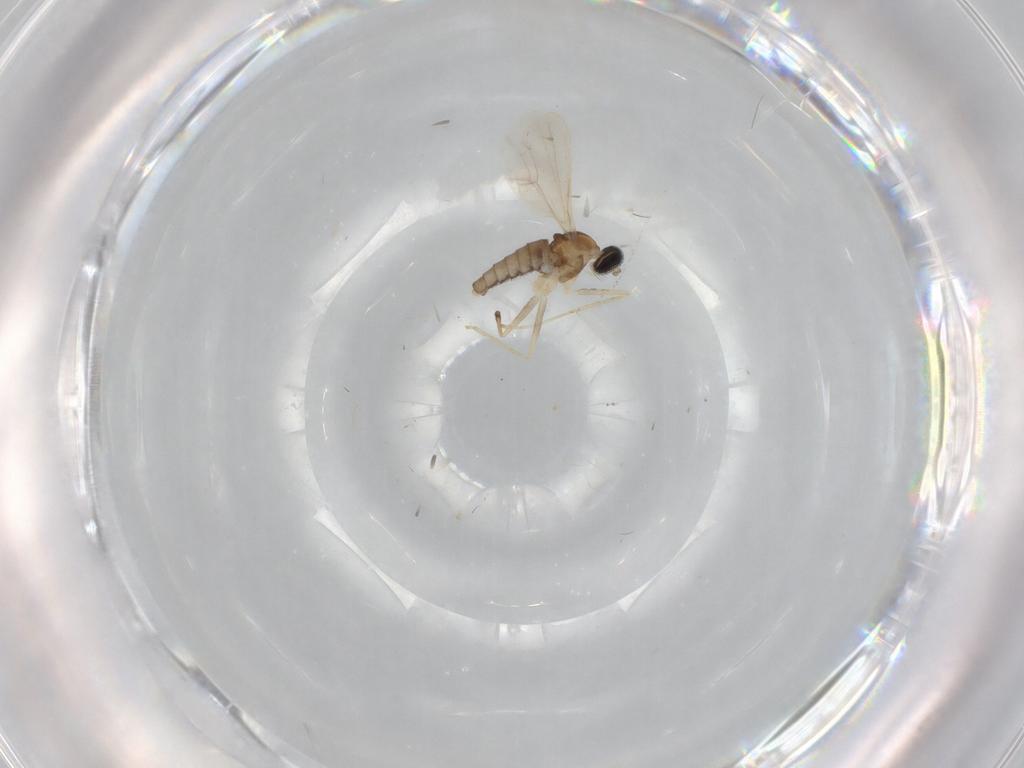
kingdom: Animalia
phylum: Arthropoda
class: Insecta
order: Diptera
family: Cecidomyiidae
